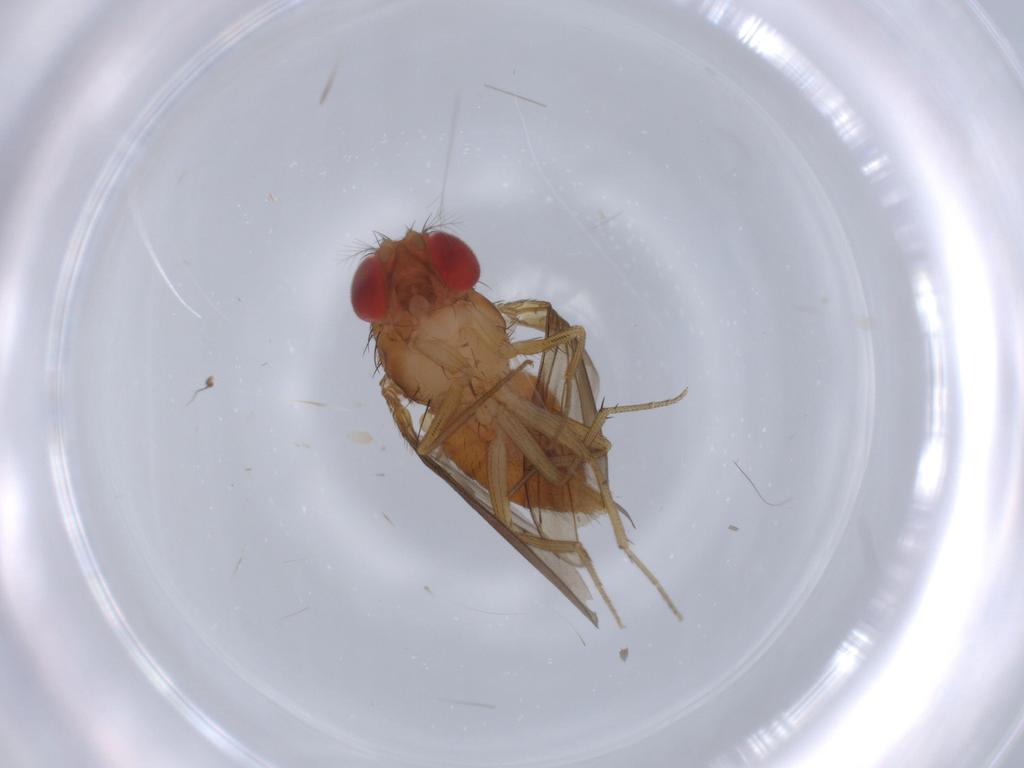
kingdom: Animalia
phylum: Arthropoda
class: Insecta
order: Diptera
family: Drosophilidae
